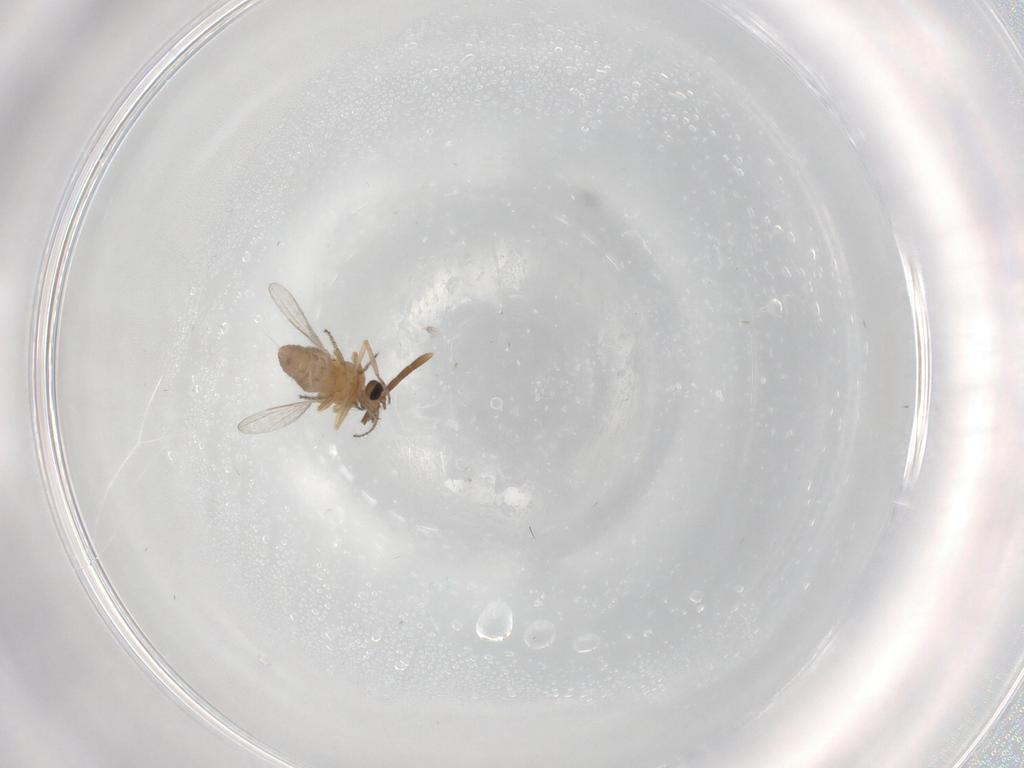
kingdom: Animalia
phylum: Arthropoda
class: Insecta
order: Diptera
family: Ceratopogonidae
